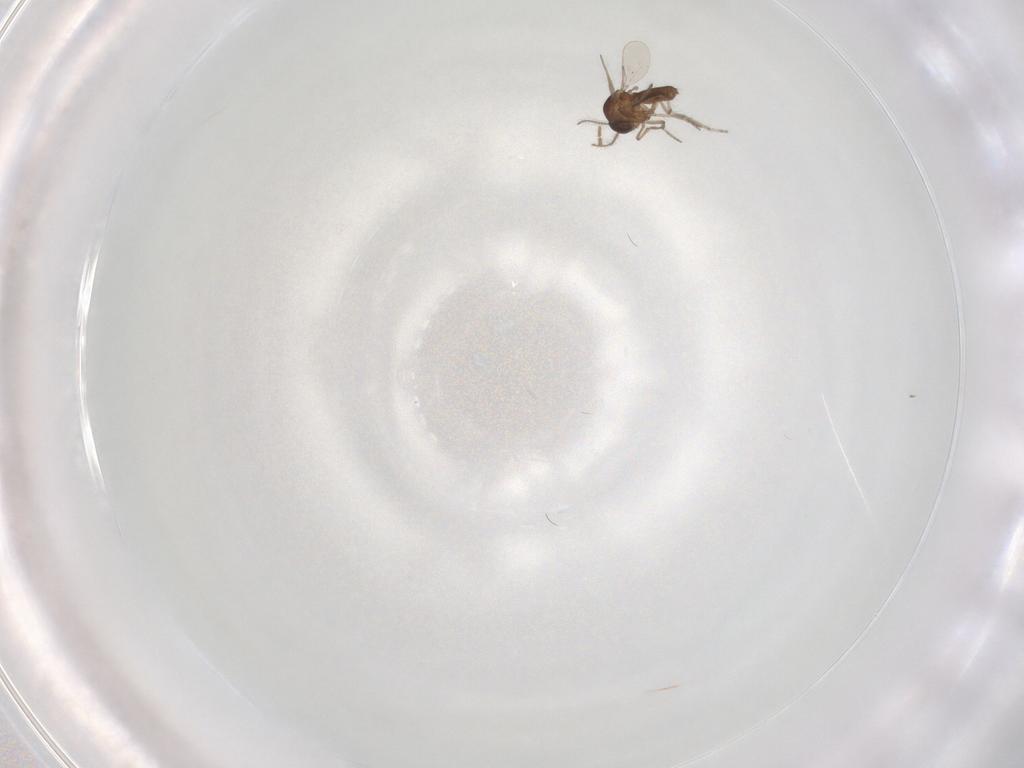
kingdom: Animalia
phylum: Arthropoda
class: Insecta
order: Diptera
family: Ceratopogonidae
